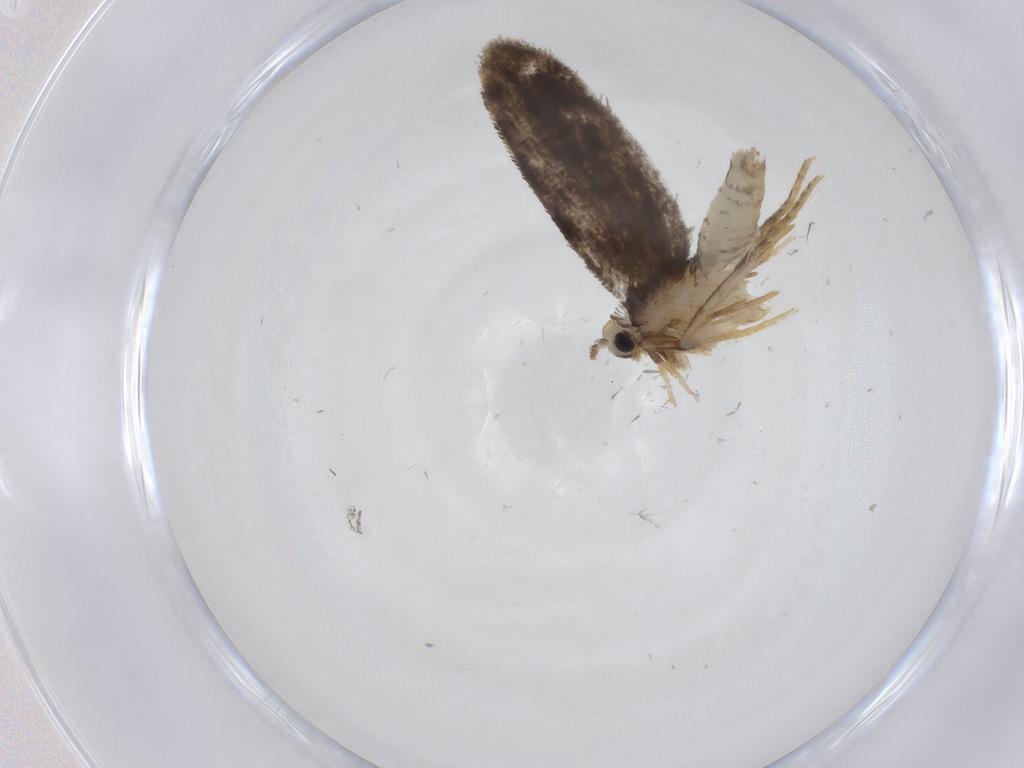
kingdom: Animalia
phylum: Arthropoda
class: Insecta
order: Lepidoptera
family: Psychidae
